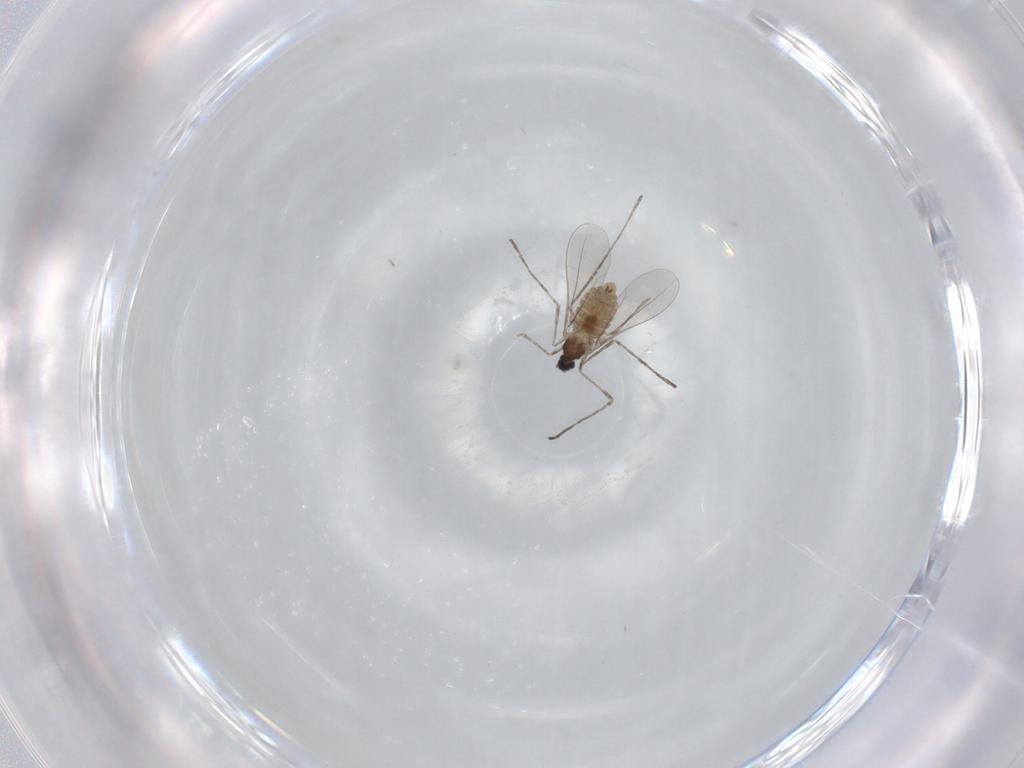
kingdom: Animalia
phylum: Arthropoda
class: Insecta
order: Diptera
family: Cecidomyiidae
